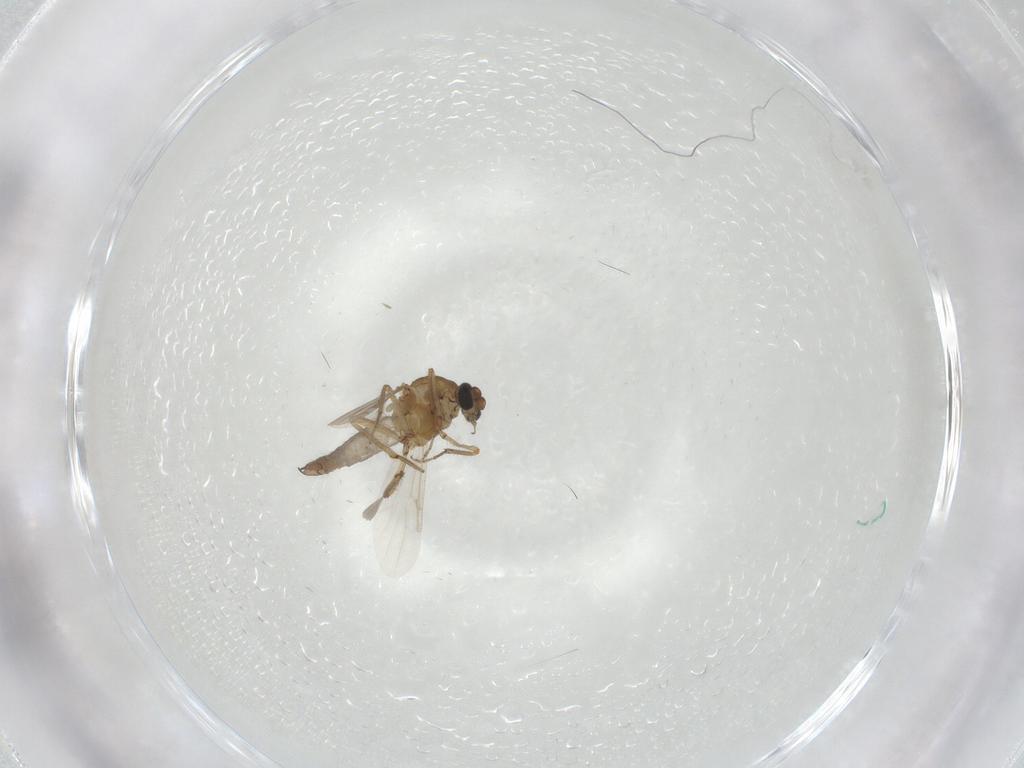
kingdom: Animalia
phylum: Arthropoda
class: Insecta
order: Diptera
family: Ceratopogonidae
